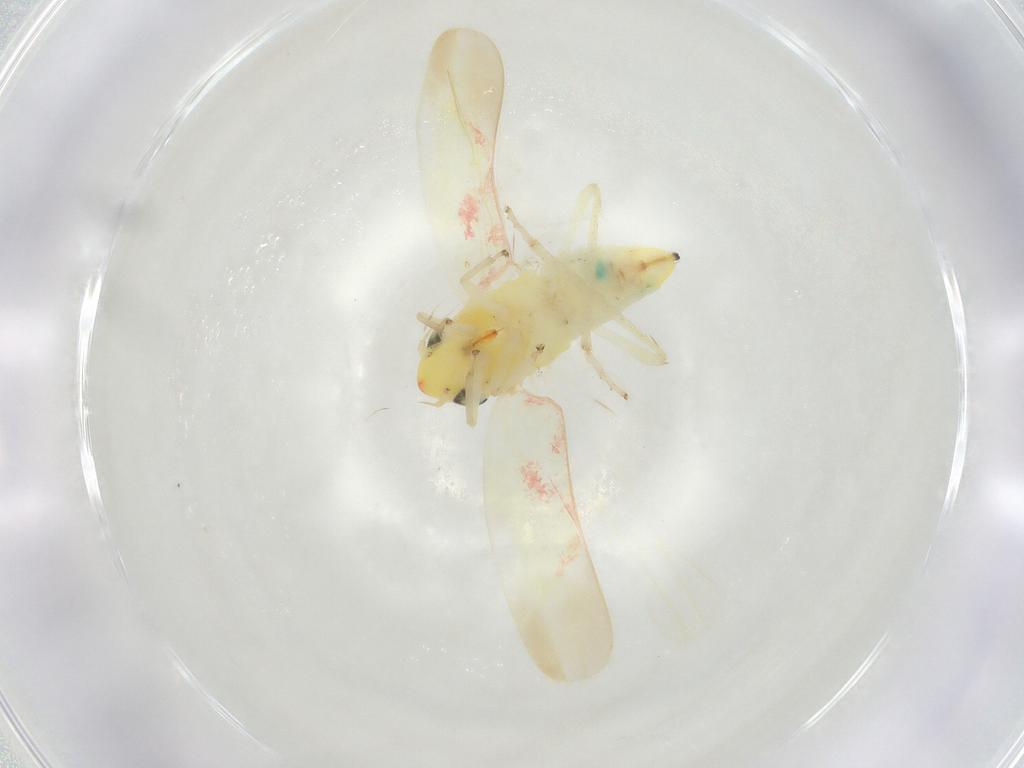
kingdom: Animalia
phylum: Arthropoda
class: Insecta
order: Hemiptera
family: Cicadellidae
